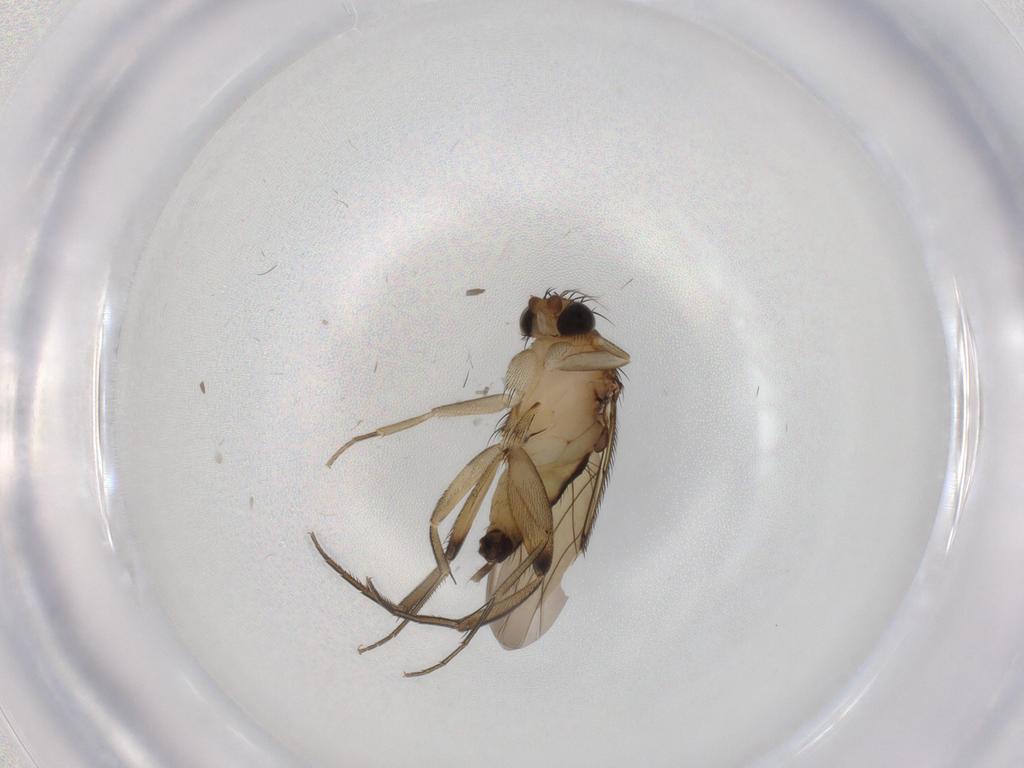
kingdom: Animalia
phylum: Arthropoda
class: Insecta
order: Diptera
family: Phoridae
